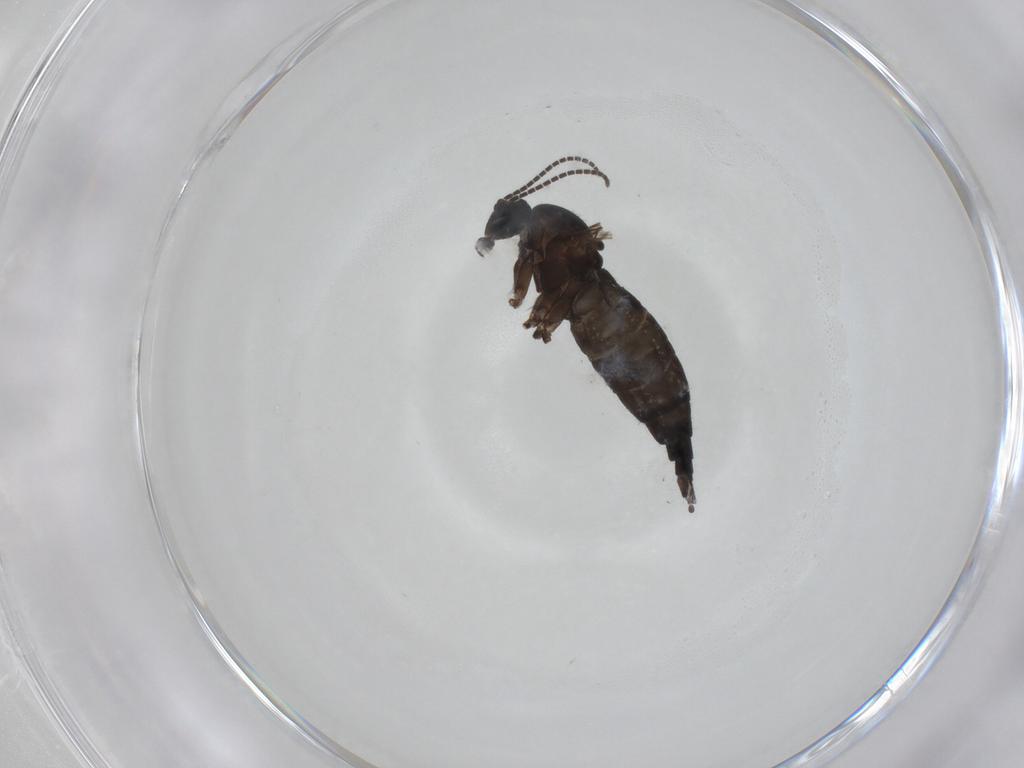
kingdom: Animalia
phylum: Arthropoda
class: Insecta
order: Diptera
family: Sciaridae
